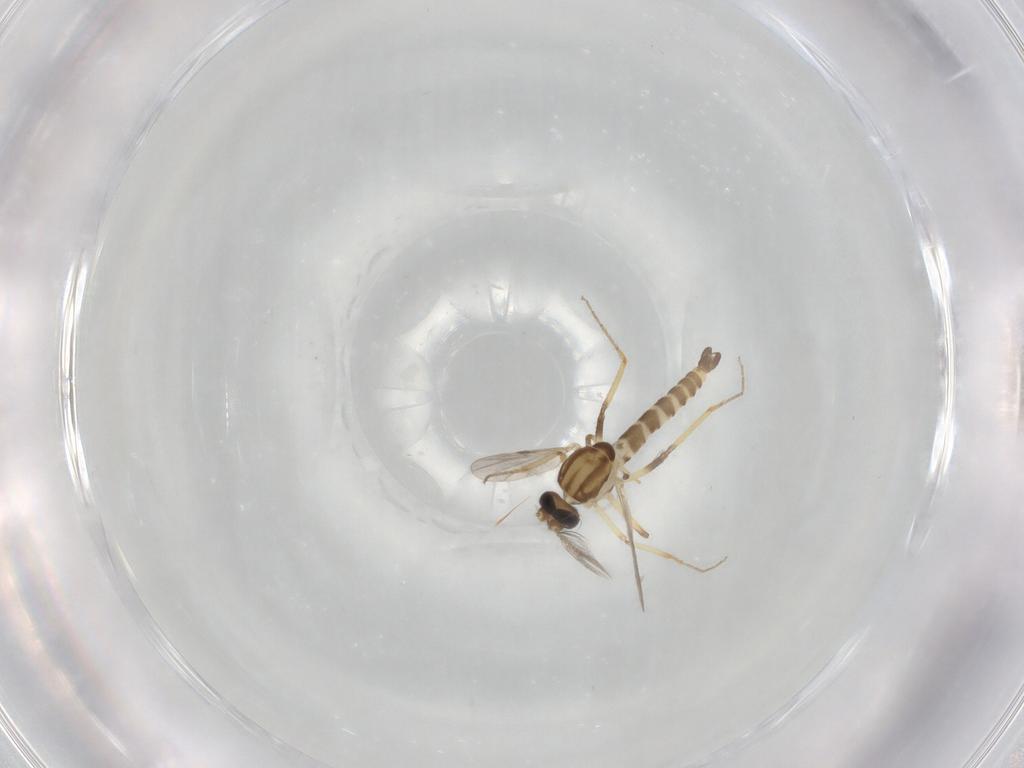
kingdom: Animalia
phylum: Arthropoda
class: Insecta
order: Diptera
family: Ceratopogonidae
